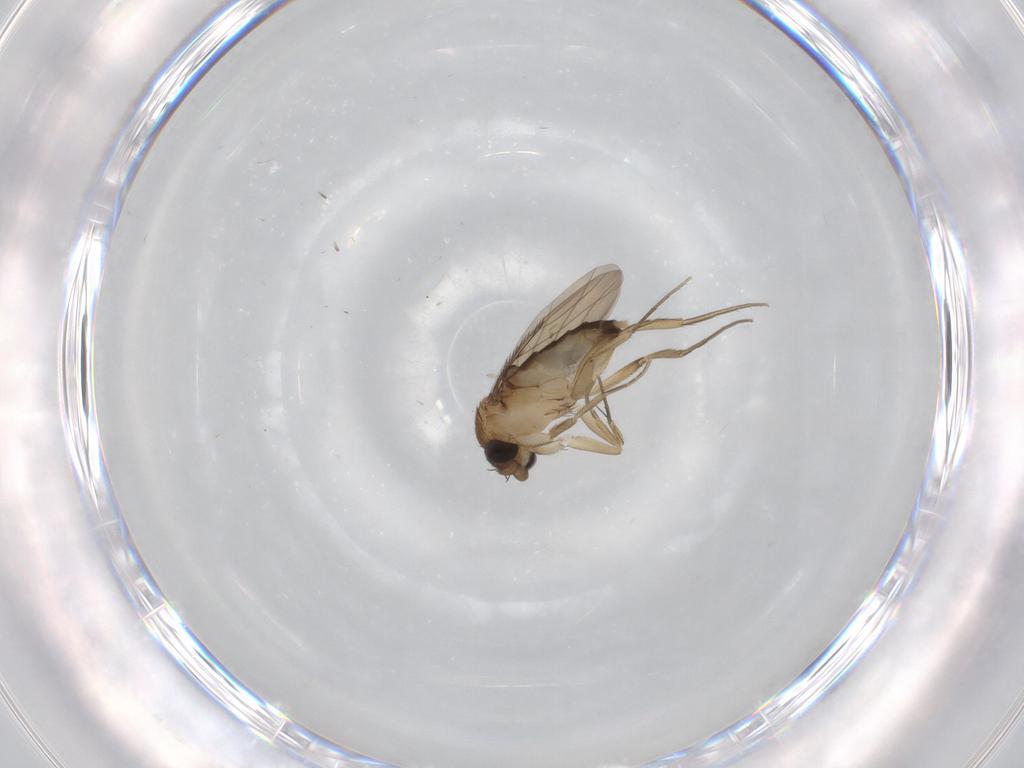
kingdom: Animalia
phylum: Arthropoda
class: Insecta
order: Diptera
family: Phoridae
